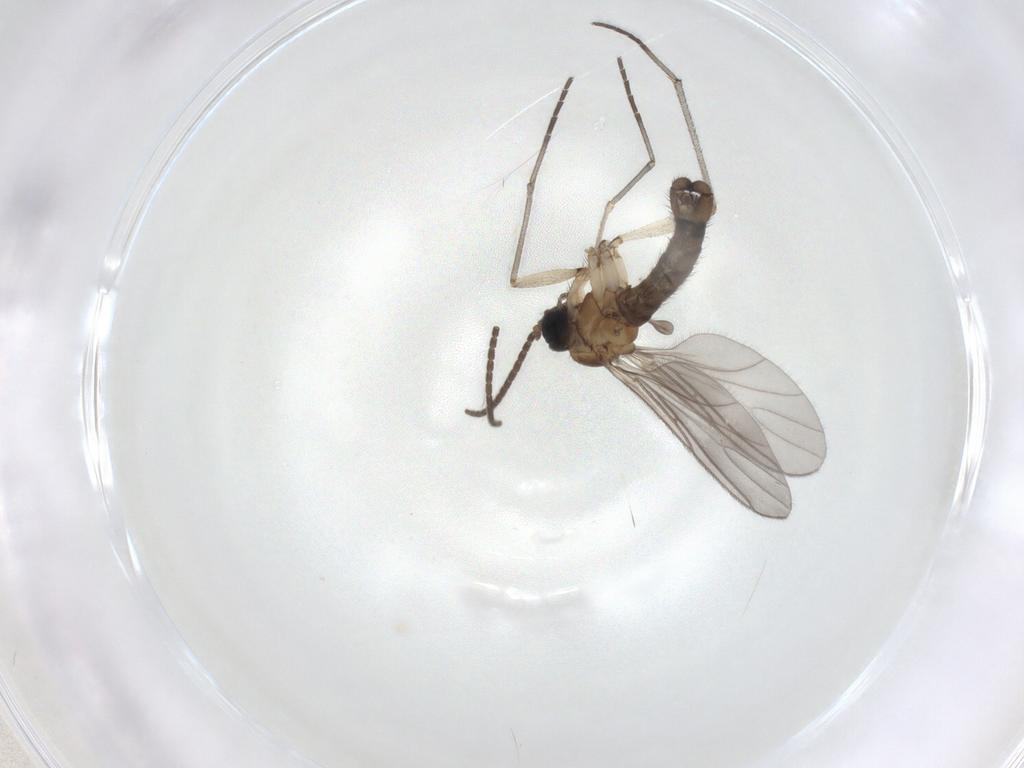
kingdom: Animalia
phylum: Arthropoda
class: Insecta
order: Diptera
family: Sciaridae
